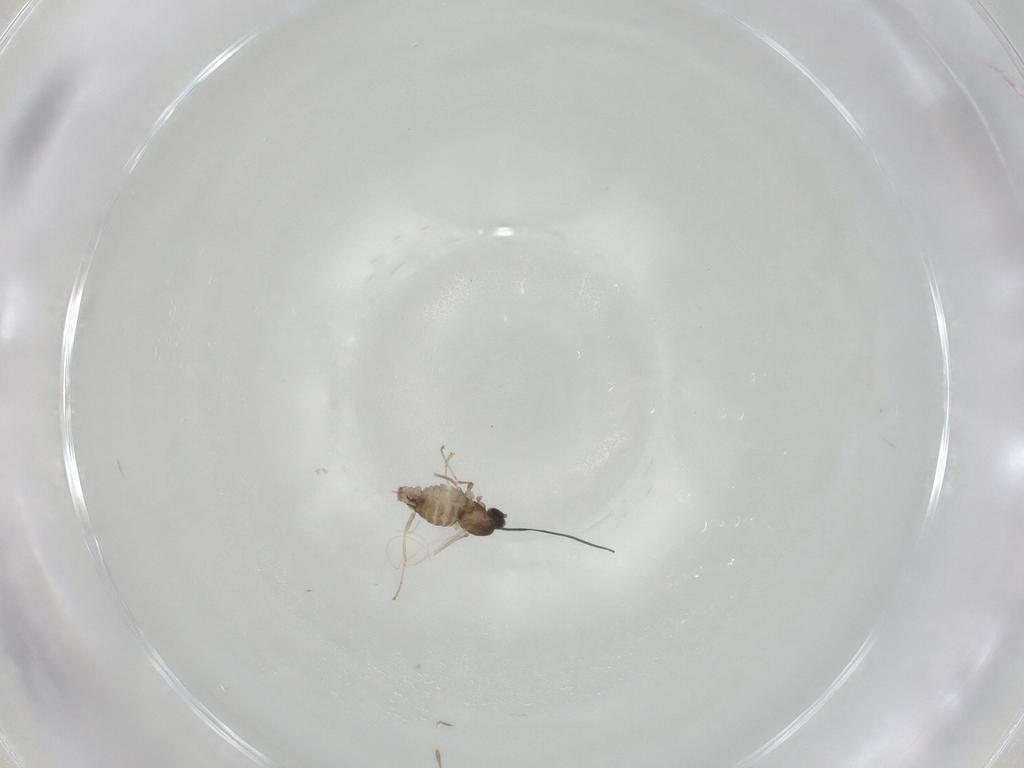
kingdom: Animalia
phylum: Arthropoda
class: Insecta
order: Diptera
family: Cecidomyiidae
